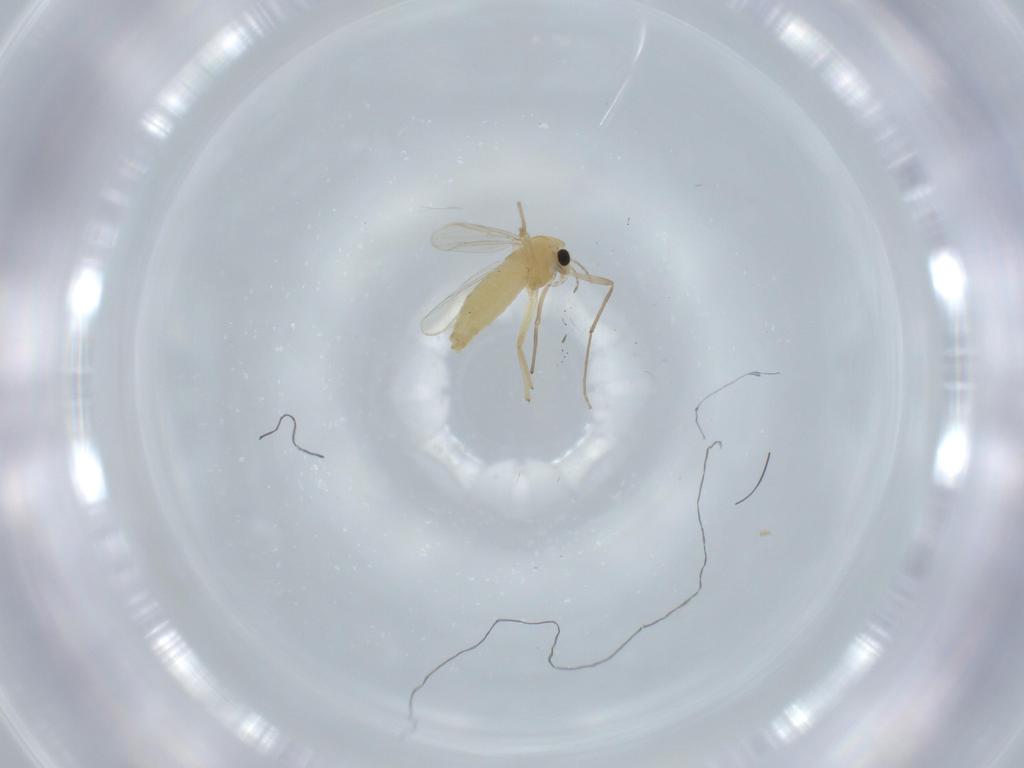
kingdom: Animalia
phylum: Arthropoda
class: Insecta
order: Diptera
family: Chironomidae
